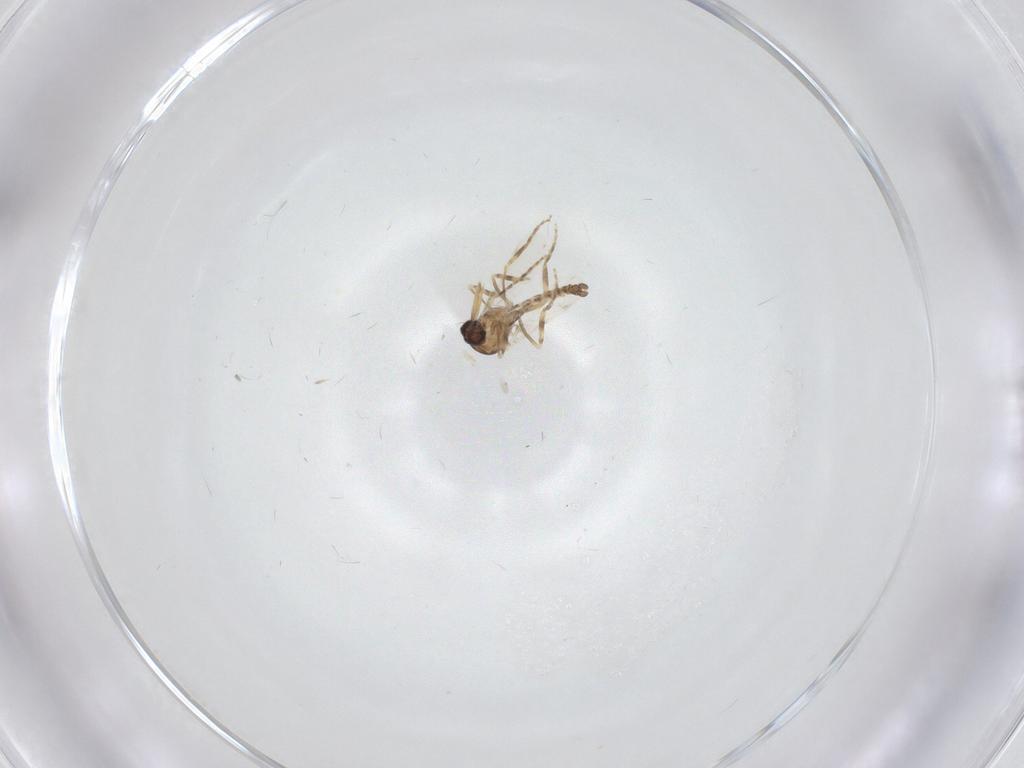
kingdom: Animalia
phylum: Arthropoda
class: Insecta
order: Diptera
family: Ceratopogonidae
